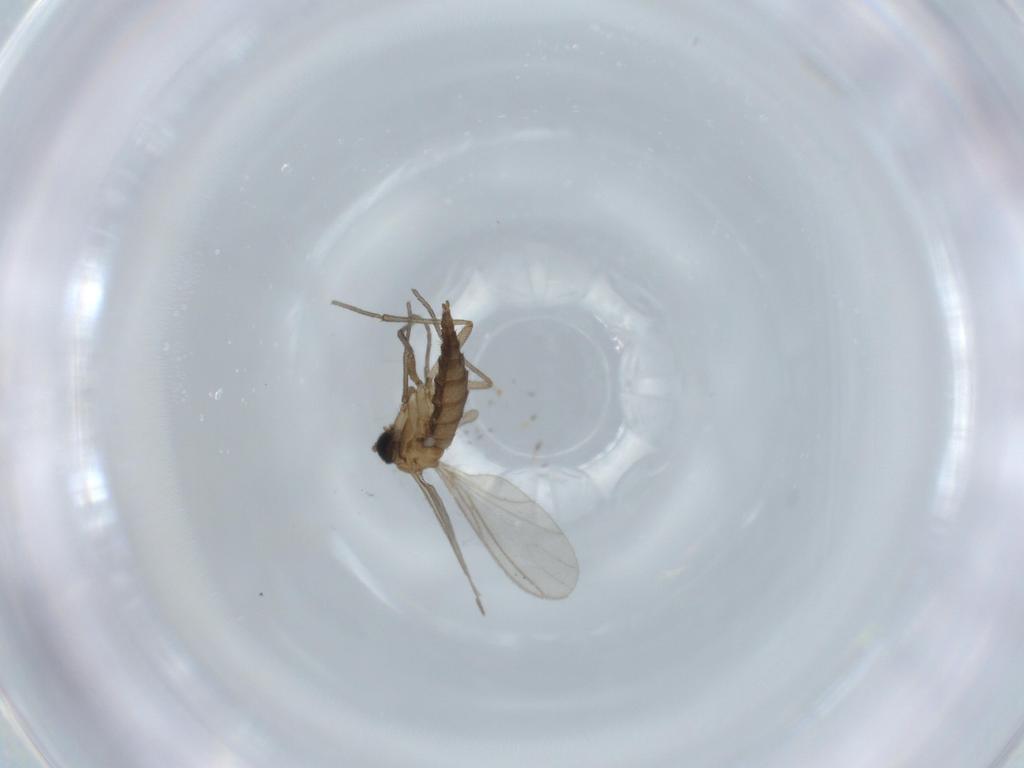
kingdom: Animalia
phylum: Arthropoda
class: Insecta
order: Diptera
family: Sciaridae
